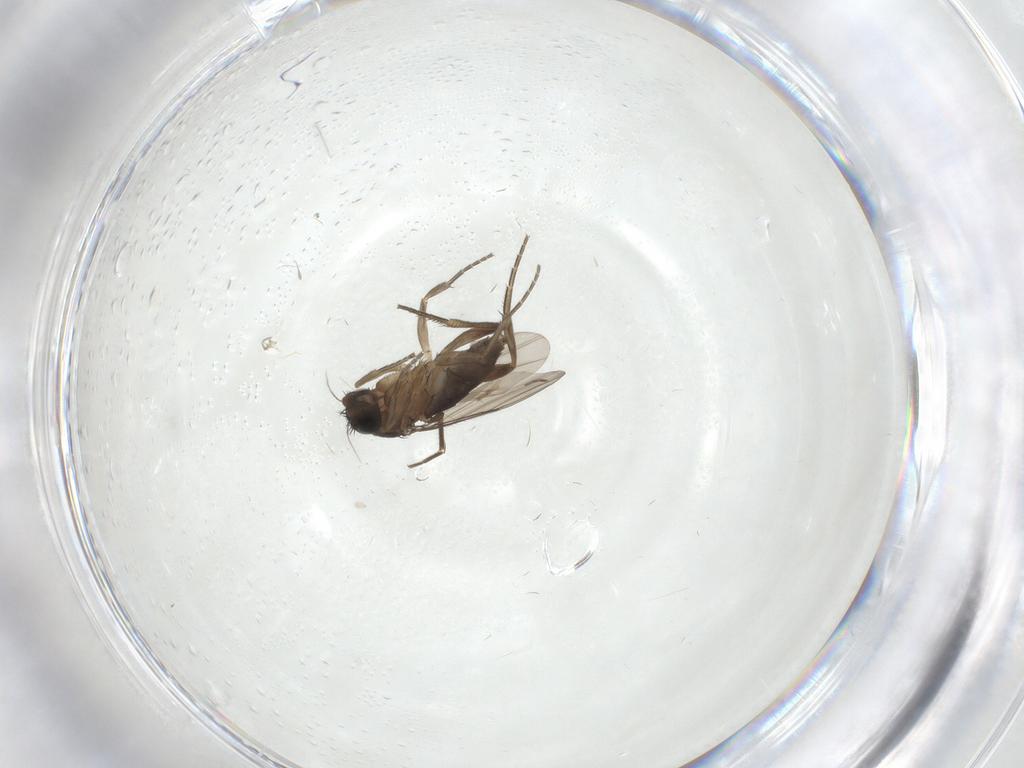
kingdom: Animalia
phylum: Arthropoda
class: Insecta
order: Diptera
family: Phoridae
